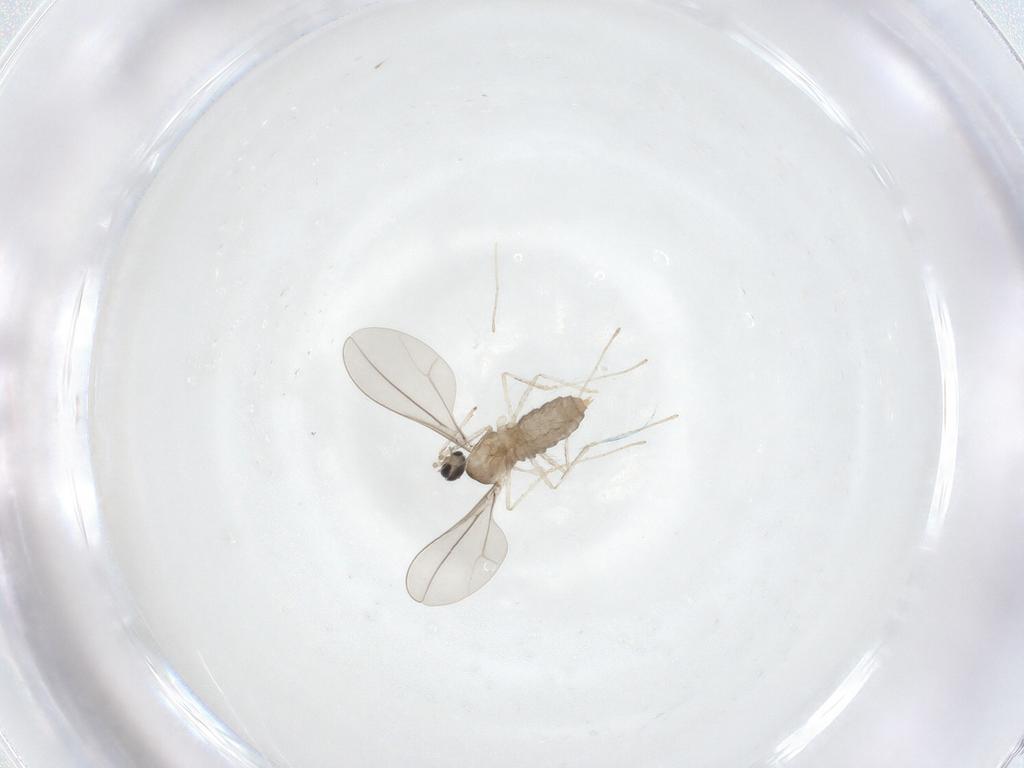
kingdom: Animalia
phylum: Arthropoda
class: Insecta
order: Diptera
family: Cecidomyiidae
